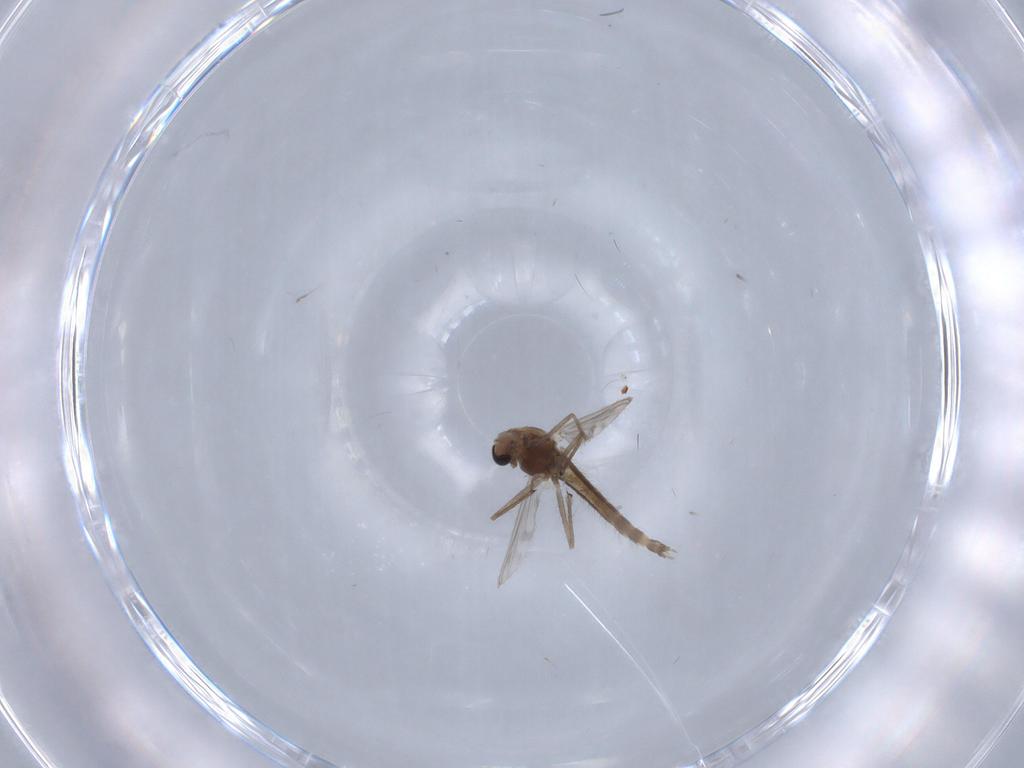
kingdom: Animalia
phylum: Arthropoda
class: Insecta
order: Diptera
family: Chironomidae
